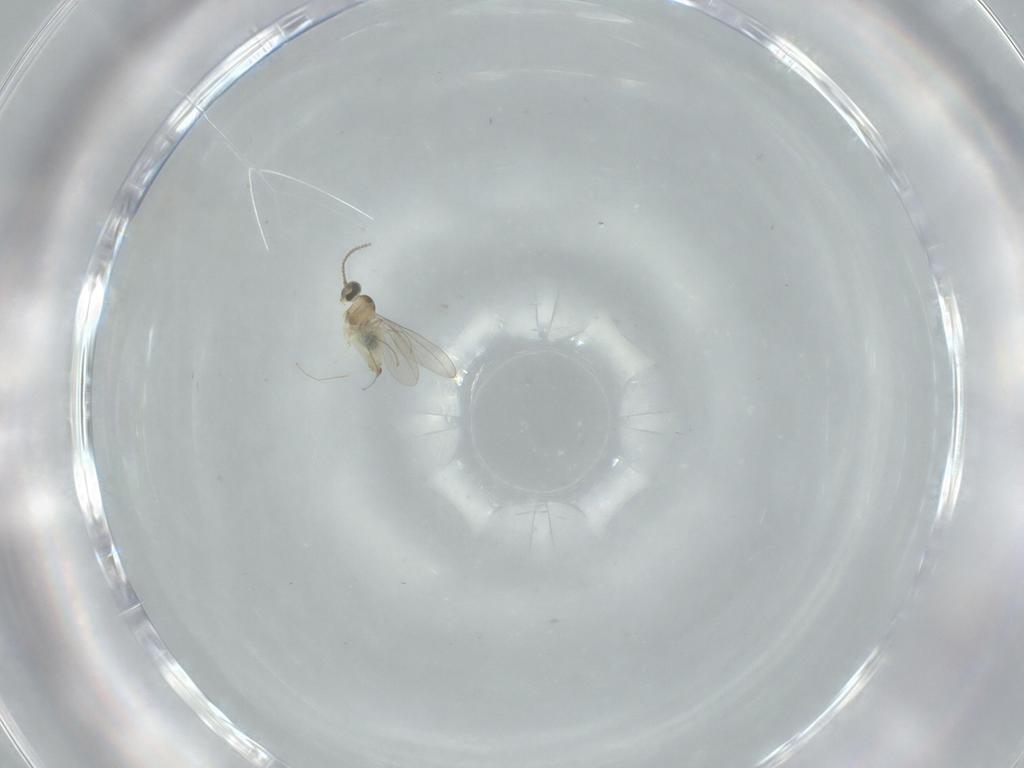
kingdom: Animalia
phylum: Arthropoda
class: Insecta
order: Diptera
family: Cecidomyiidae
